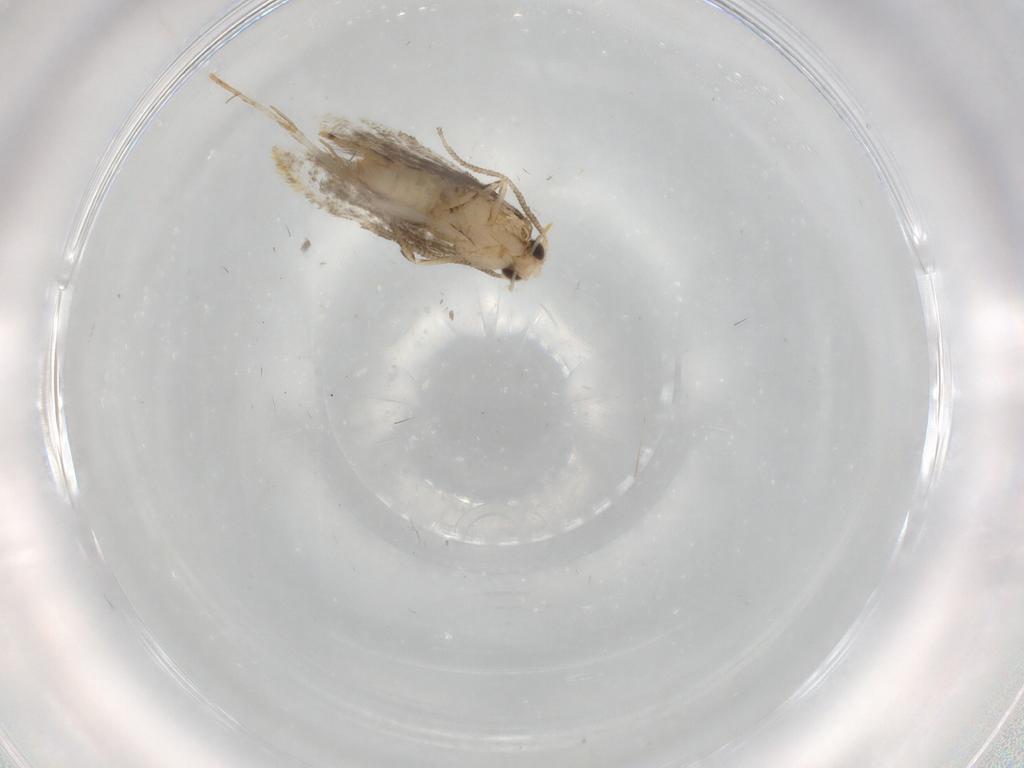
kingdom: Animalia
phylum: Arthropoda
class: Insecta
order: Lepidoptera
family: Tineidae
